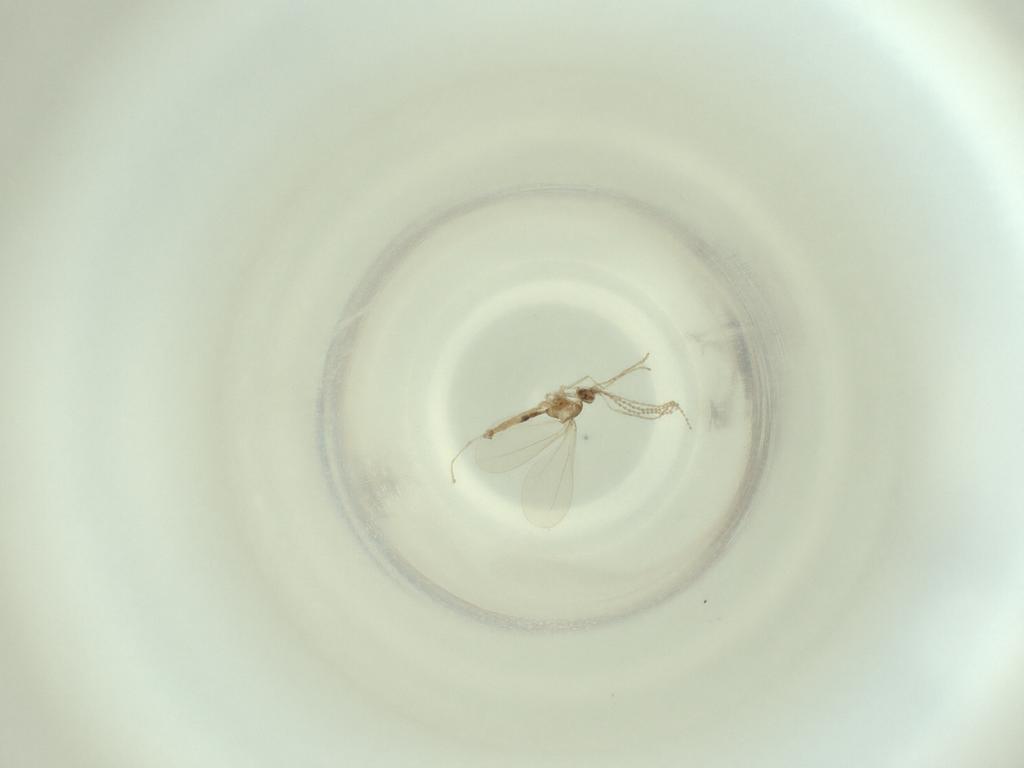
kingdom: Animalia
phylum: Arthropoda
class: Insecta
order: Diptera
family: Cecidomyiidae
